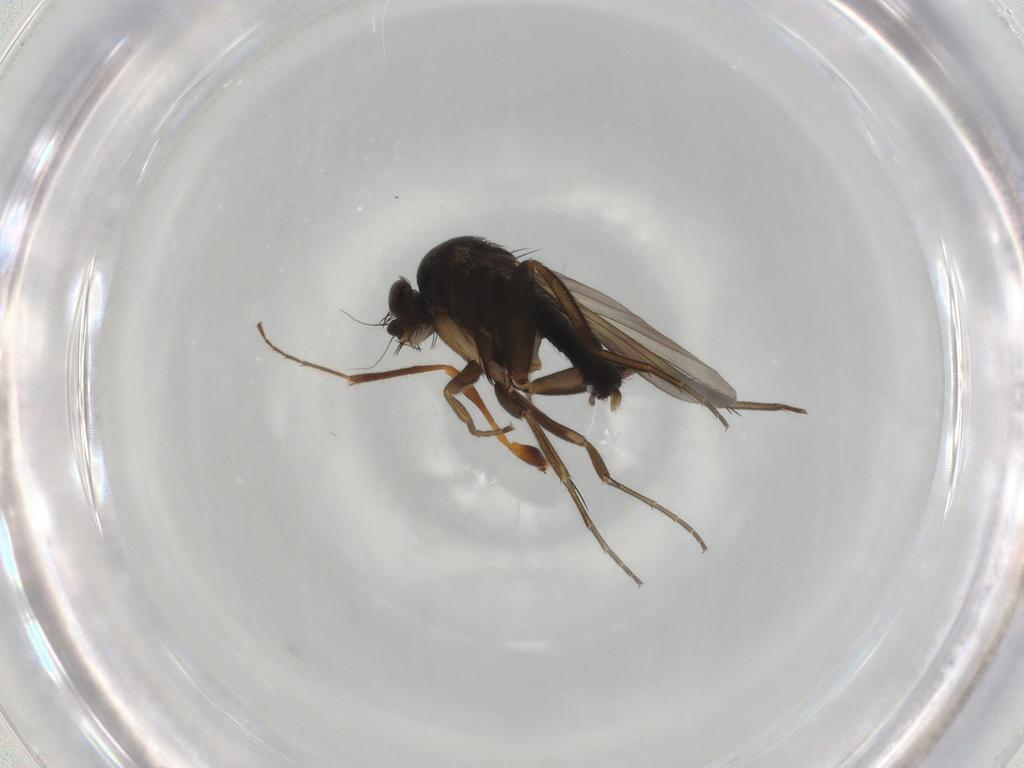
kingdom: Animalia
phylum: Arthropoda
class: Insecta
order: Diptera
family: Phoridae
